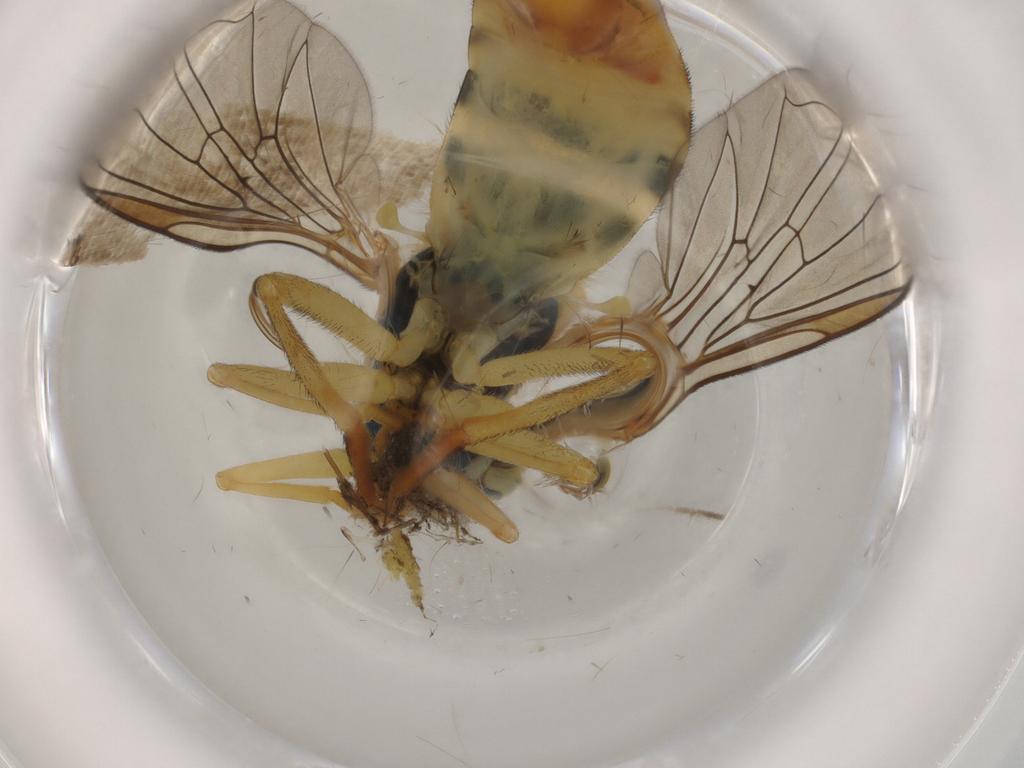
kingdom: Animalia
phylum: Arthropoda
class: Insecta
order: Diptera
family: Syrphidae
